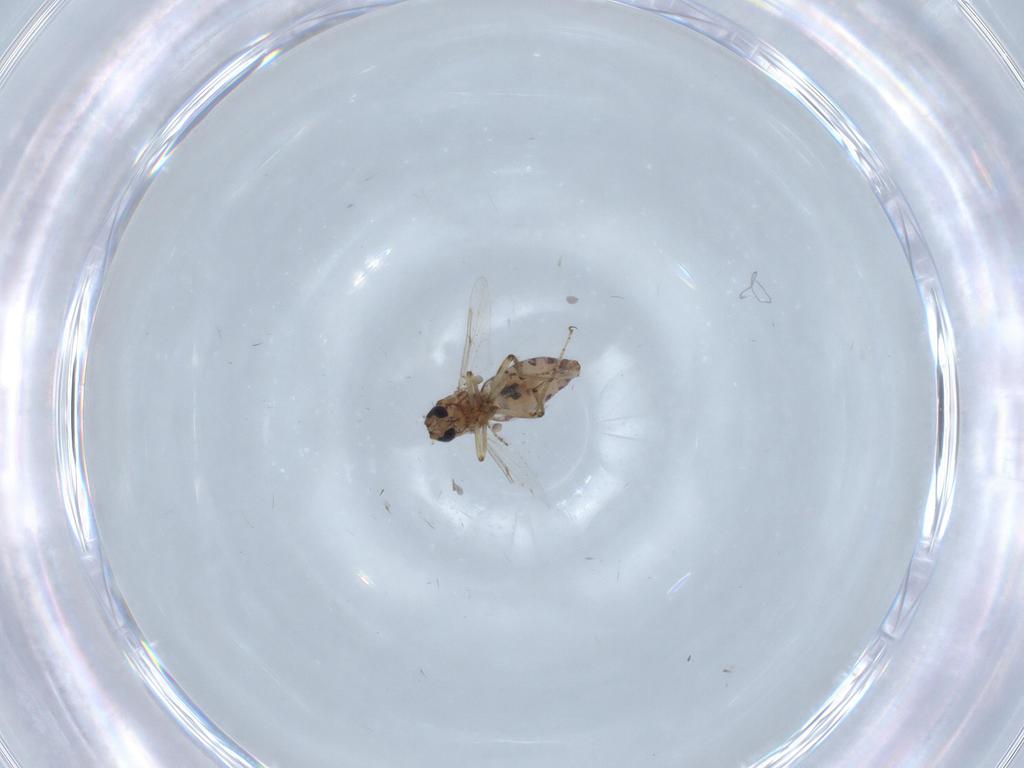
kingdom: Animalia
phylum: Arthropoda
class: Insecta
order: Diptera
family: Ceratopogonidae
